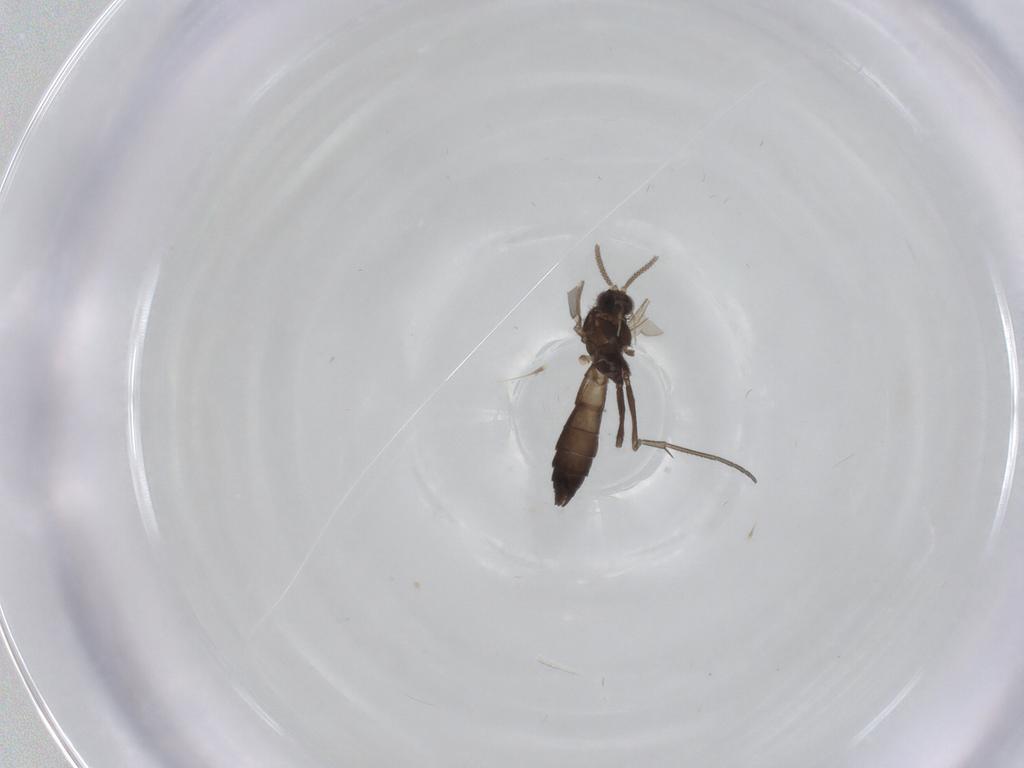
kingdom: Animalia
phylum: Arthropoda
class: Insecta
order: Diptera
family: Keroplatidae
